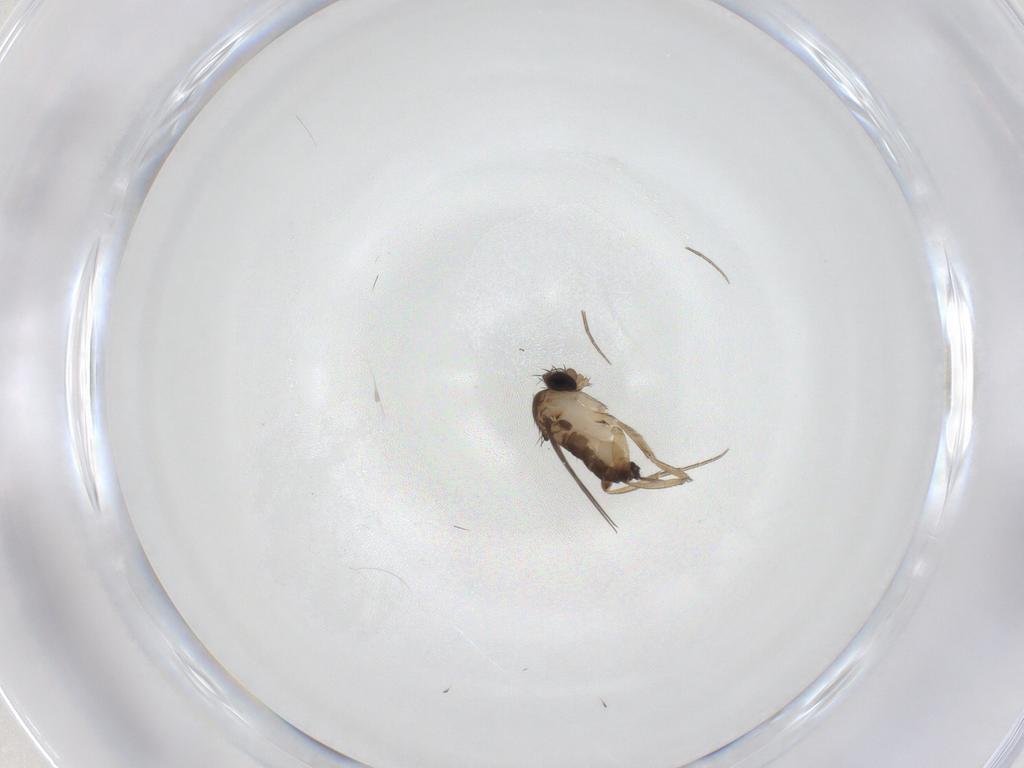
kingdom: Animalia
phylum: Arthropoda
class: Insecta
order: Diptera
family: Phoridae
